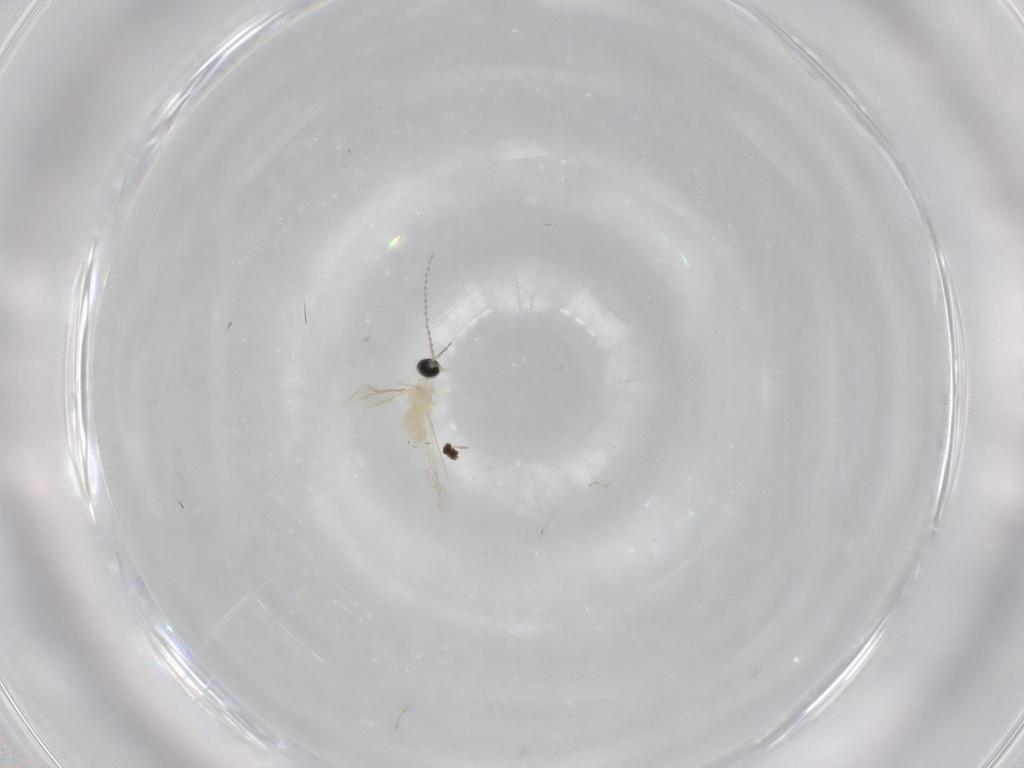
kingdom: Animalia
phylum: Arthropoda
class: Insecta
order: Diptera
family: Cecidomyiidae
